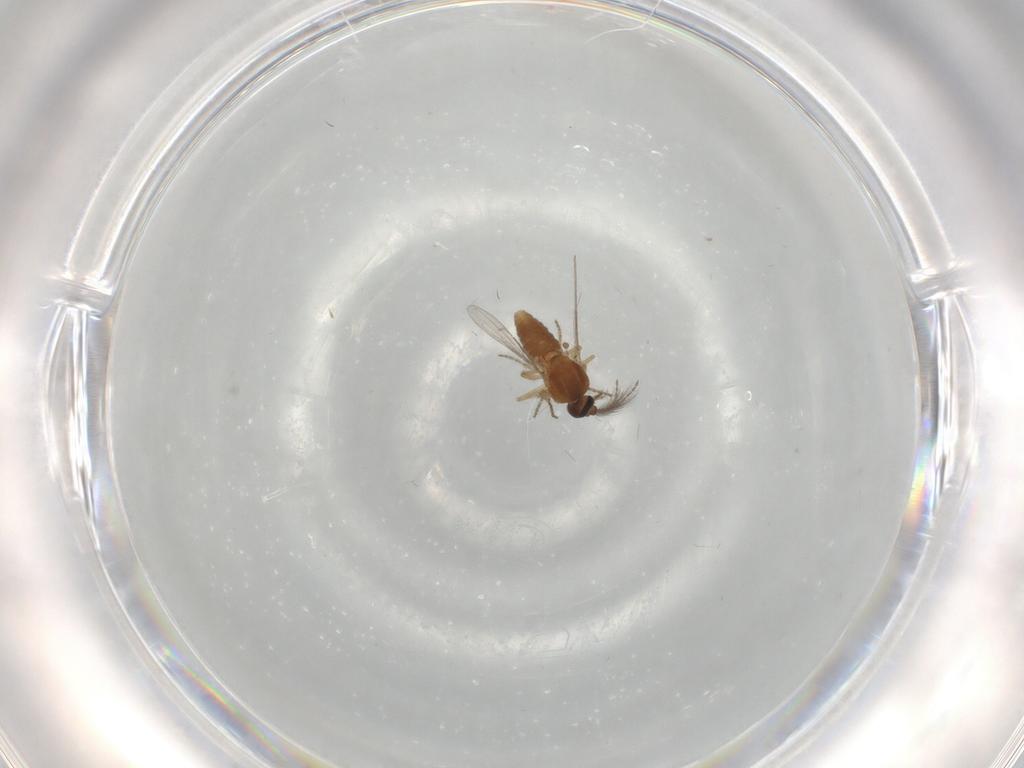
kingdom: Animalia
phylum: Arthropoda
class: Insecta
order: Diptera
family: Ceratopogonidae
